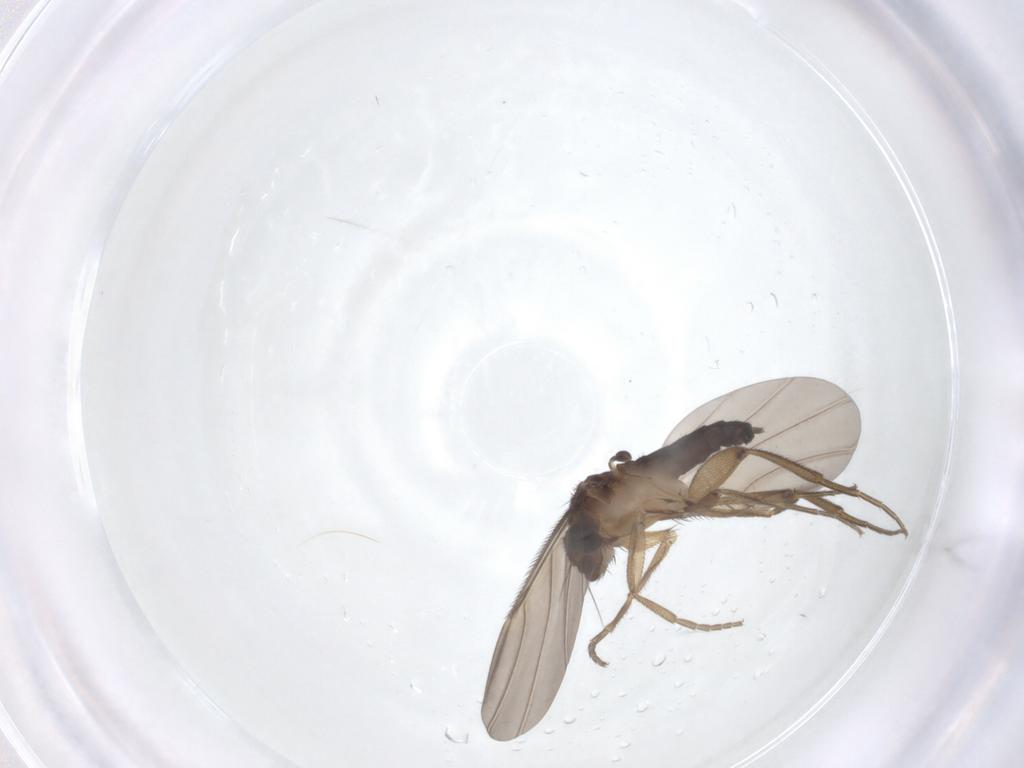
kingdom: Animalia
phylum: Arthropoda
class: Insecta
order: Diptera
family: Phoridae
